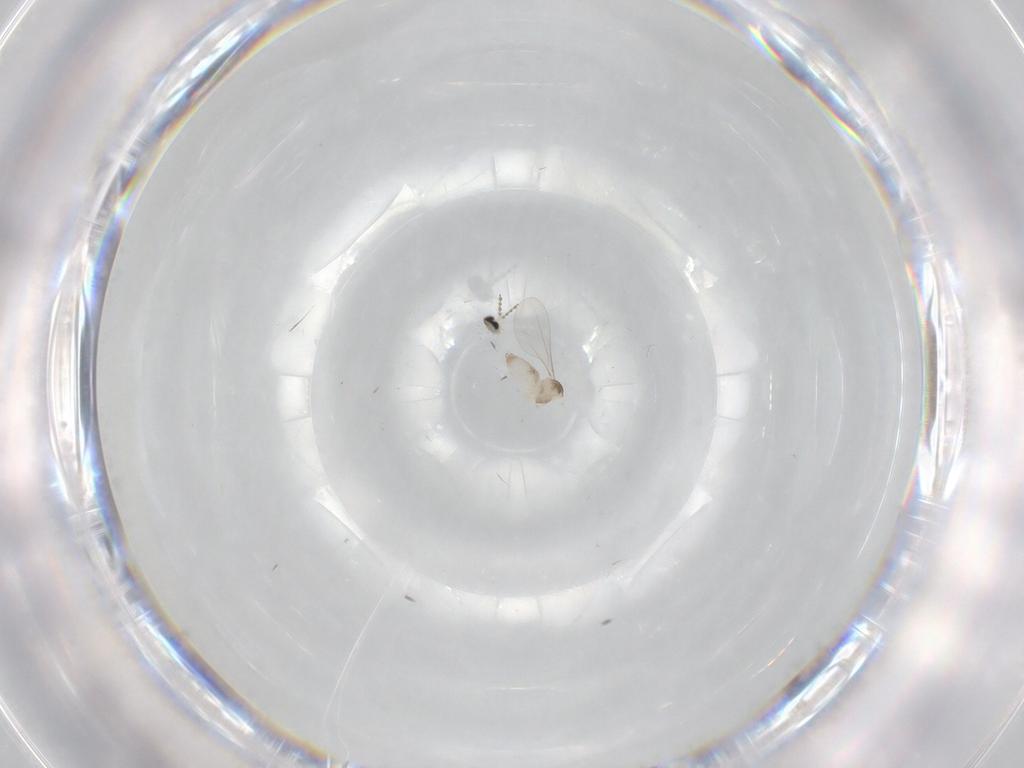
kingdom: Animalia
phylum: Arthropoda
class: Insecta
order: Diptera
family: Cecidomyiidae
